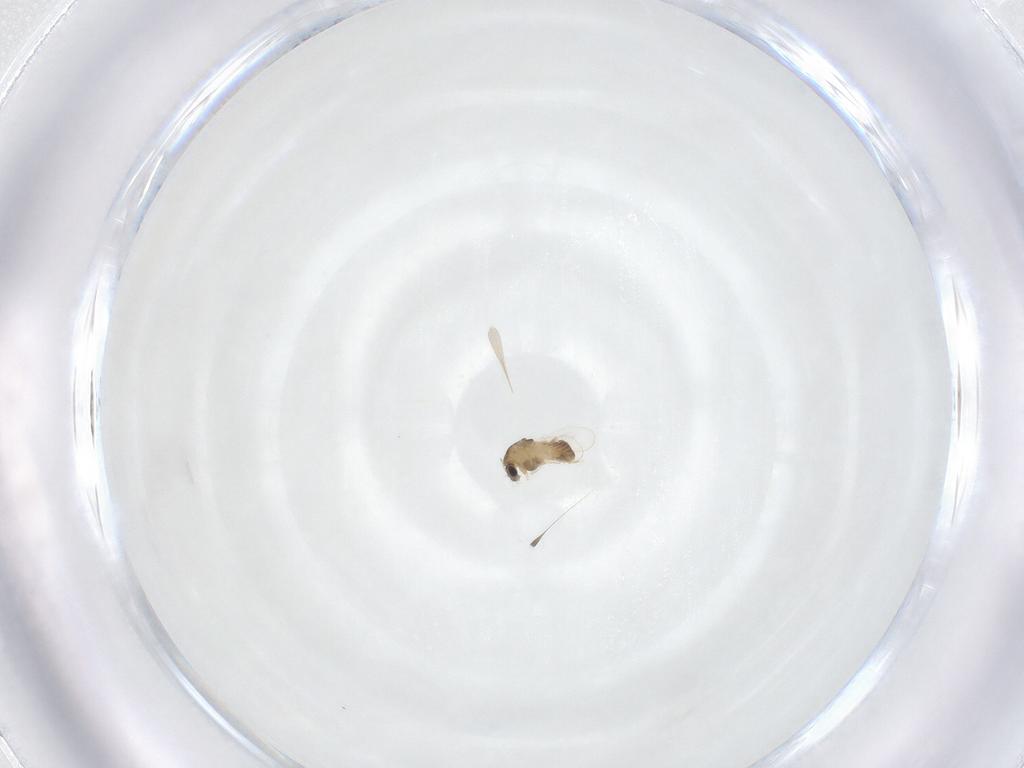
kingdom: Animalia
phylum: Arthropoda
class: Insecta
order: Diptera
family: Chironomidae
